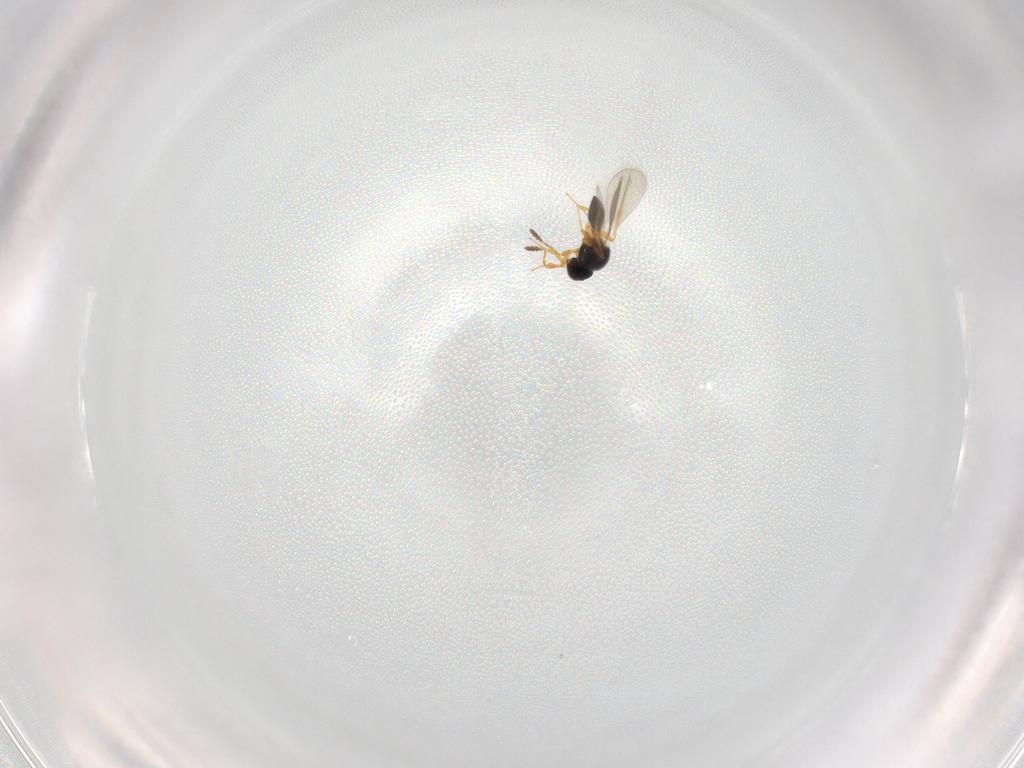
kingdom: Animalia
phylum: Arthropoda
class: Insecta
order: Hymenoptera
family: Platygastridae
